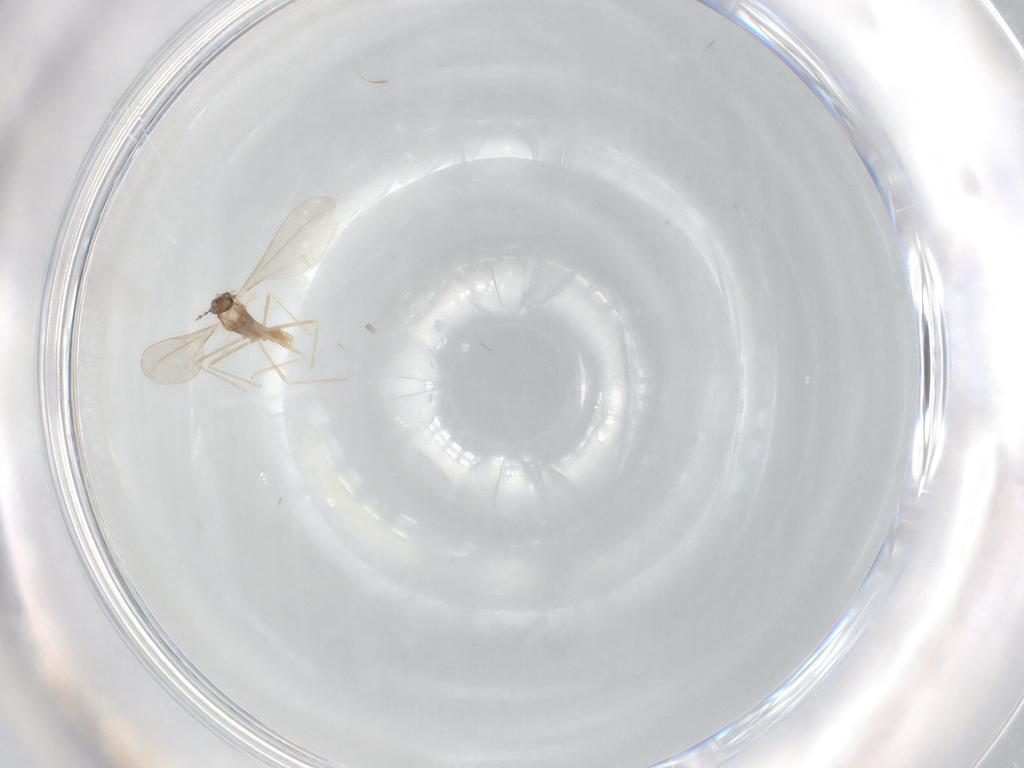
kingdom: Animalia
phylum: Arthropoda
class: Insecta
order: Diptera
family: Cecidomyiidae
